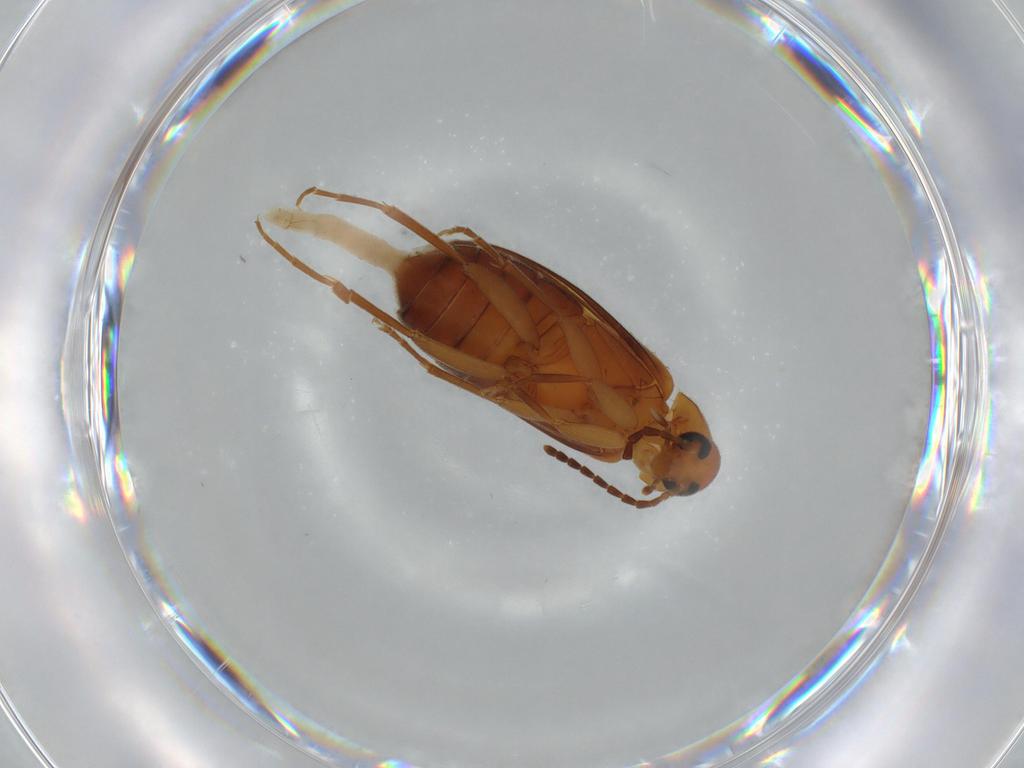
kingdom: Animalia
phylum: Arthropoda
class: Insecta
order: Coleoptera
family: Scraptiidae
